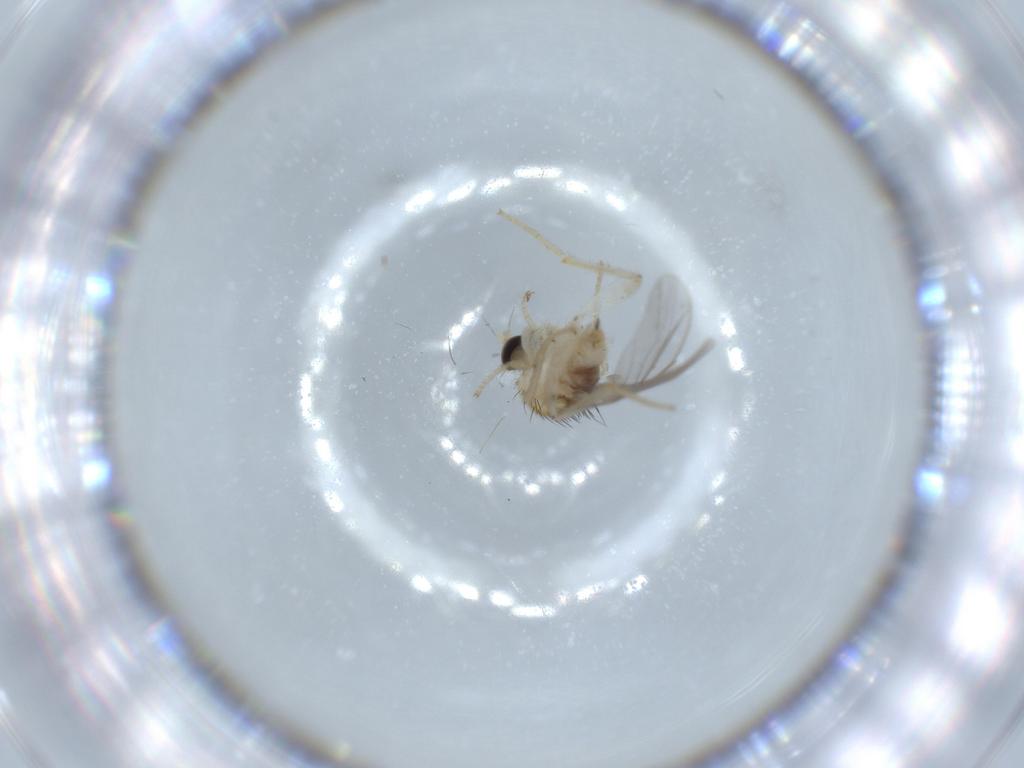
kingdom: Animalia
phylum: Arthropoda
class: Insecta
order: Diptera
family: Hybotidae
